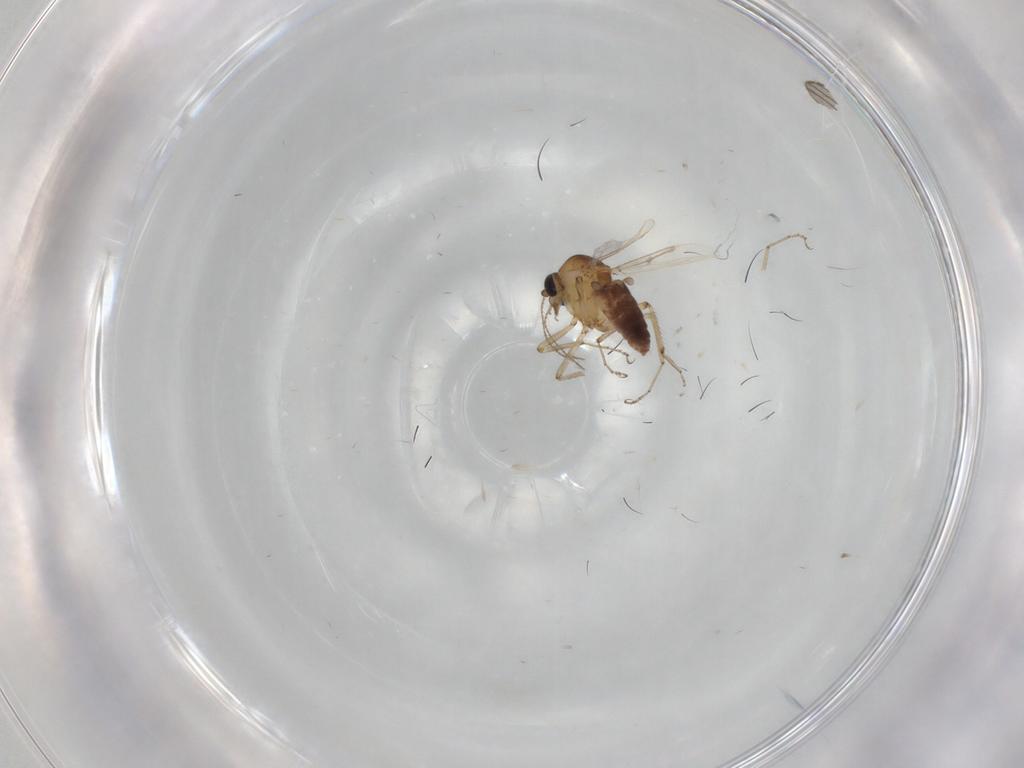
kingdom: Animalia
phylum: Arthropoda
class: Insecta
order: Diptera
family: Ceratopogonidae
